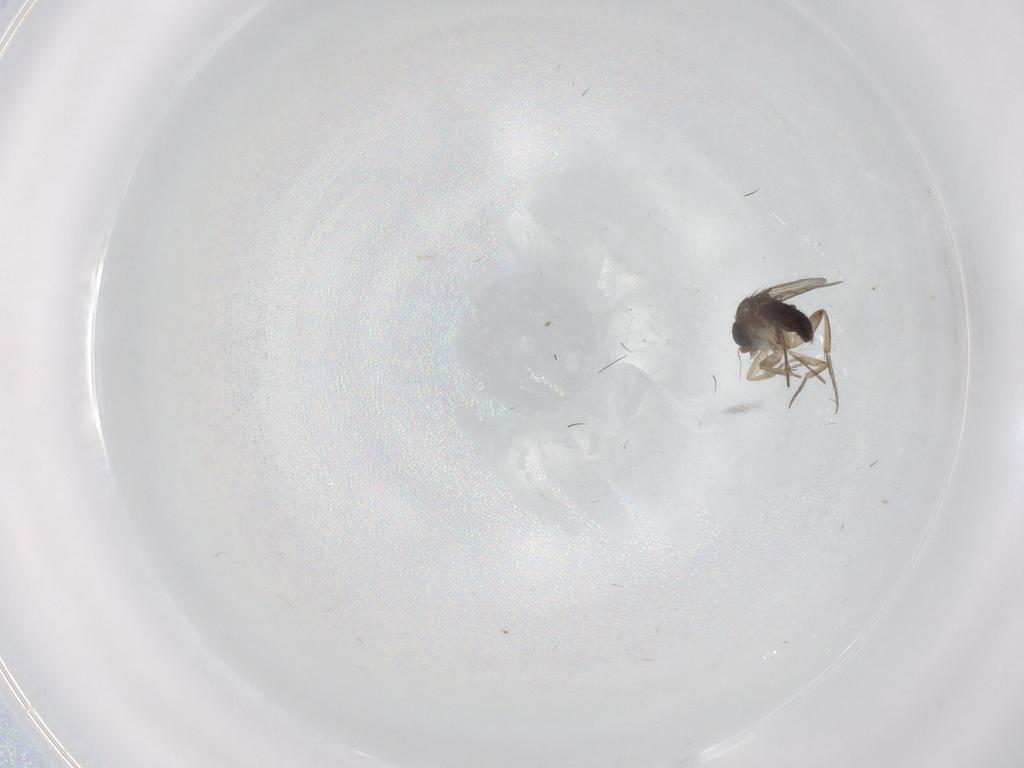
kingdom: Animalia
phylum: Arthropoda
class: Insecta
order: Diptera
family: Phoridae
